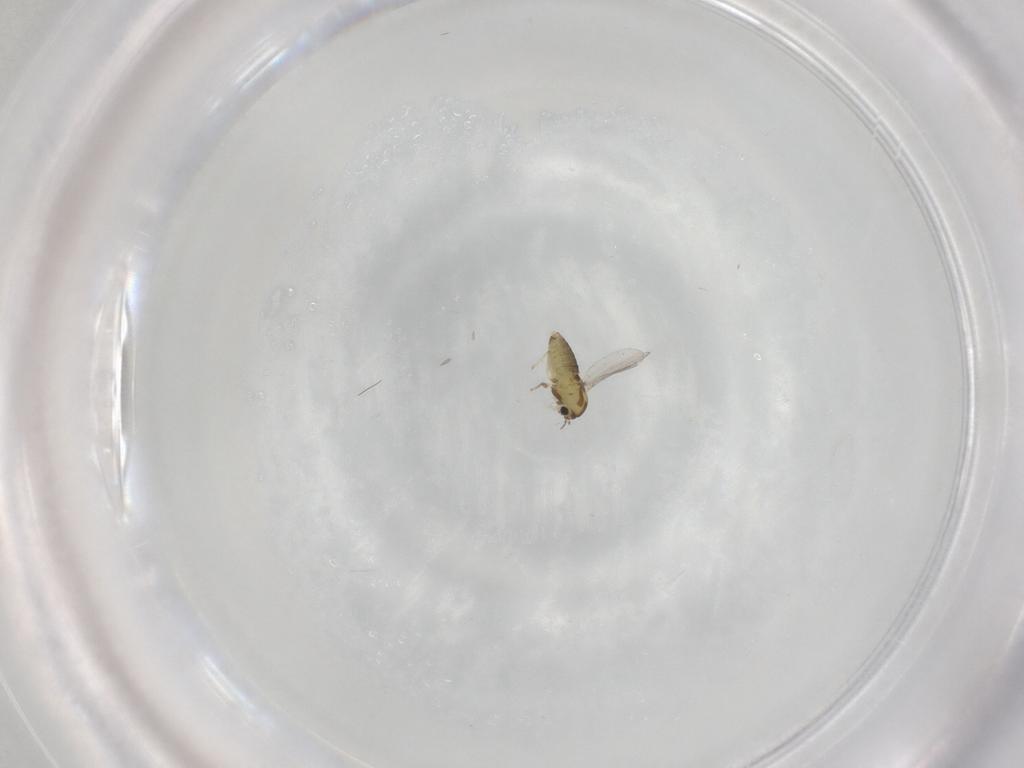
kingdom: Animalia
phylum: Arthropoda
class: Insecta
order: Diptera
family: Chironomidae
